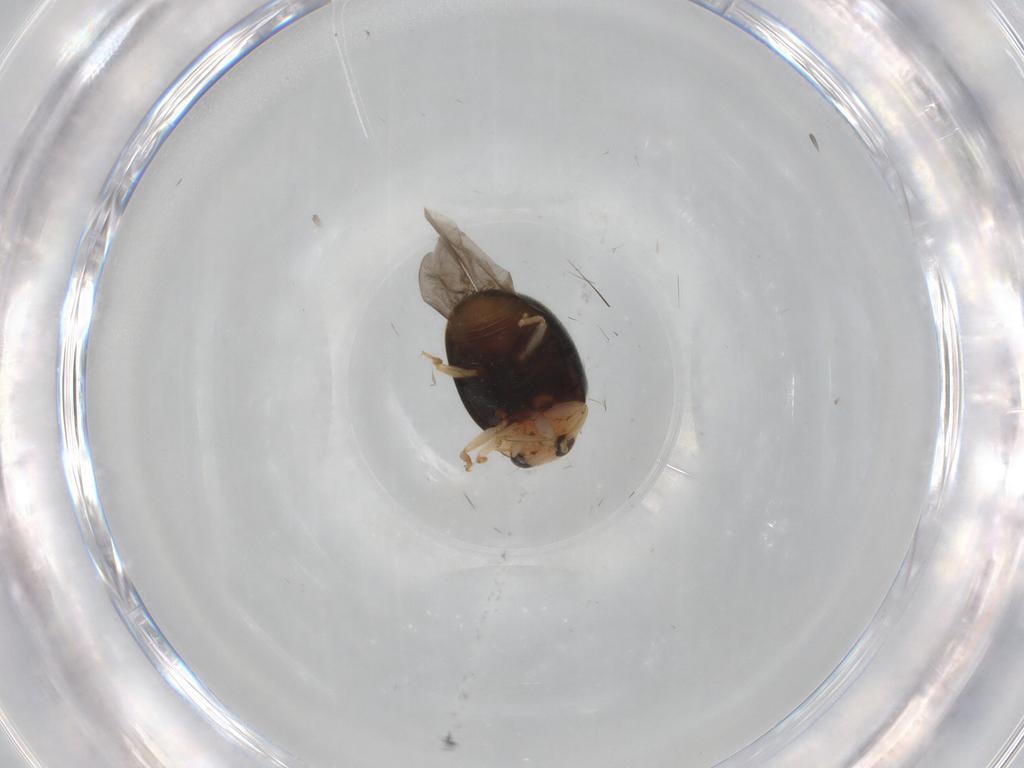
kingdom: Animalia
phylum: Arthropoda
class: Insecta
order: Coleoptera
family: Coccinellidae
